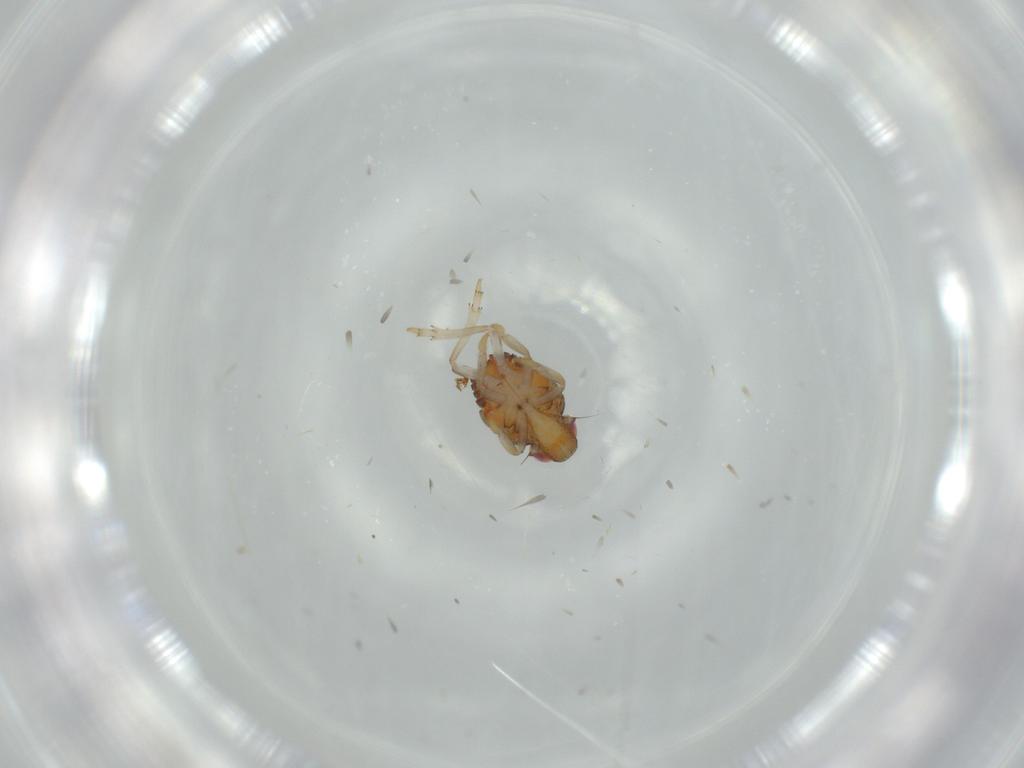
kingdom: Animalia
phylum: Arthropoda
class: Insecta
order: Hemiptera
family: Issidae
